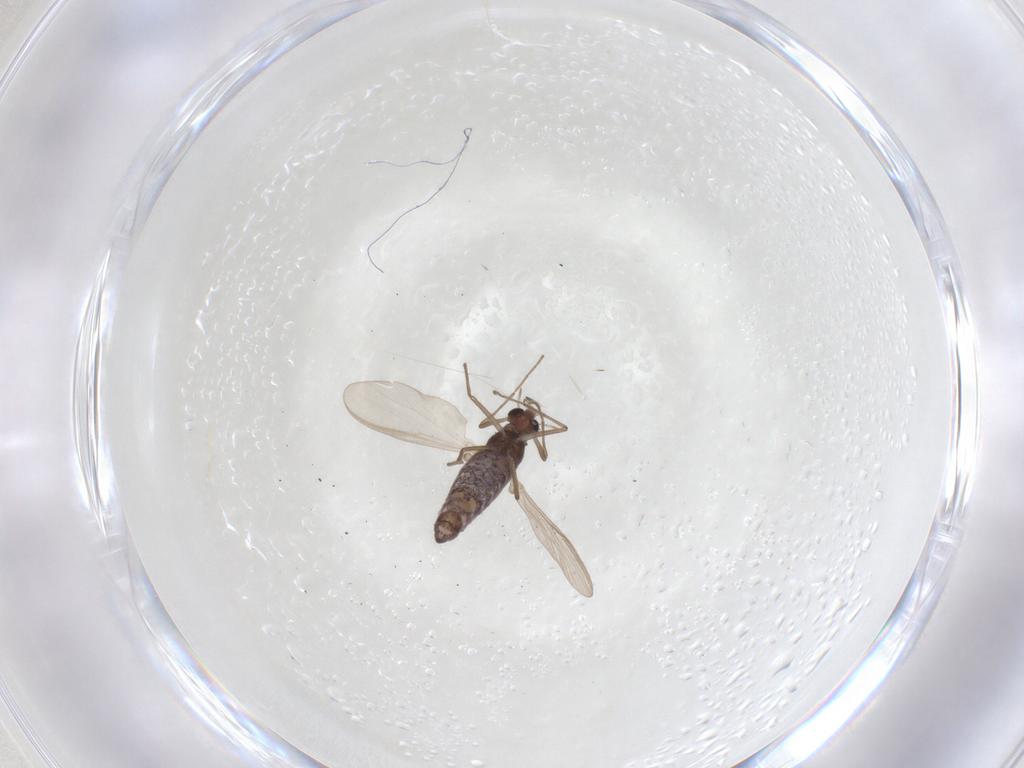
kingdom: Animalia
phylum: Arthropoda
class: Insecta
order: Diptera
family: Chironomidae
